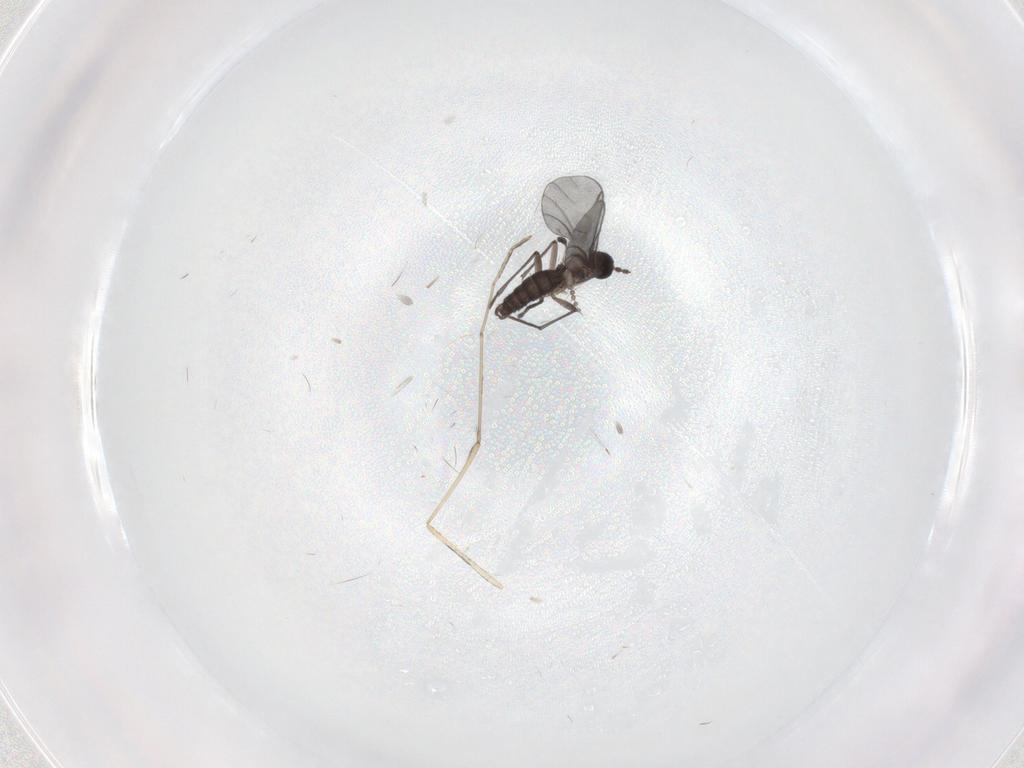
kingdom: Animalia
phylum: Arthropoda
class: Insecta
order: Diptera
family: Cecidomyiidae
